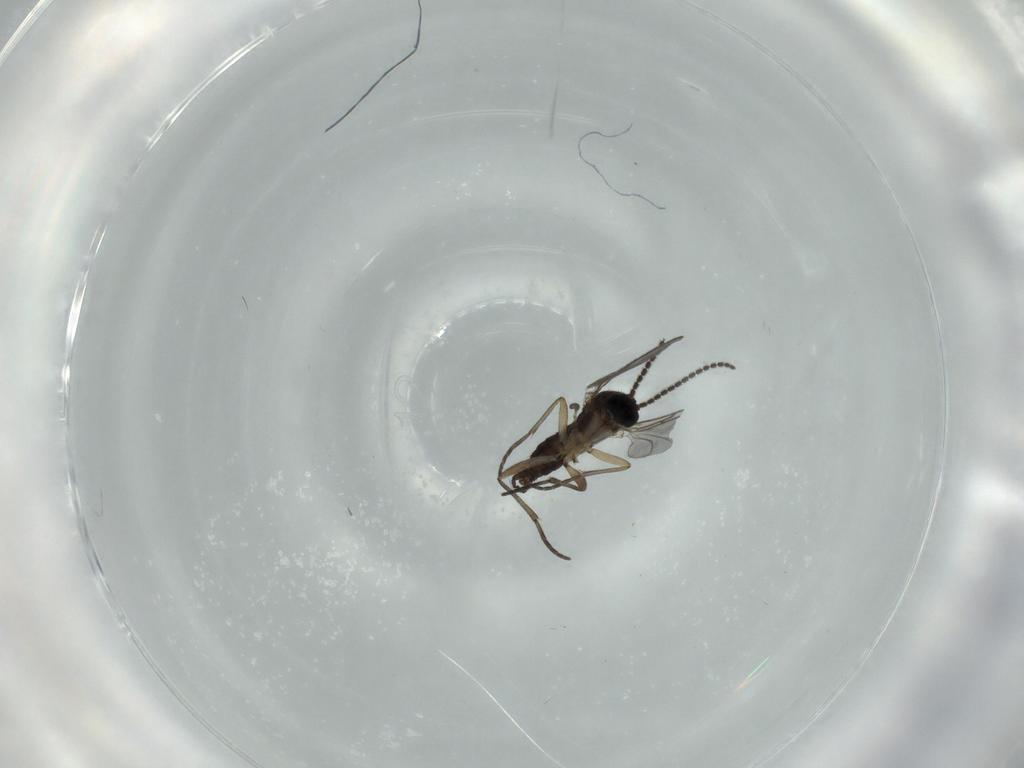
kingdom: Animalia
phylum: Arthropoda
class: Insecta
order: Diptera
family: Sciaridae
